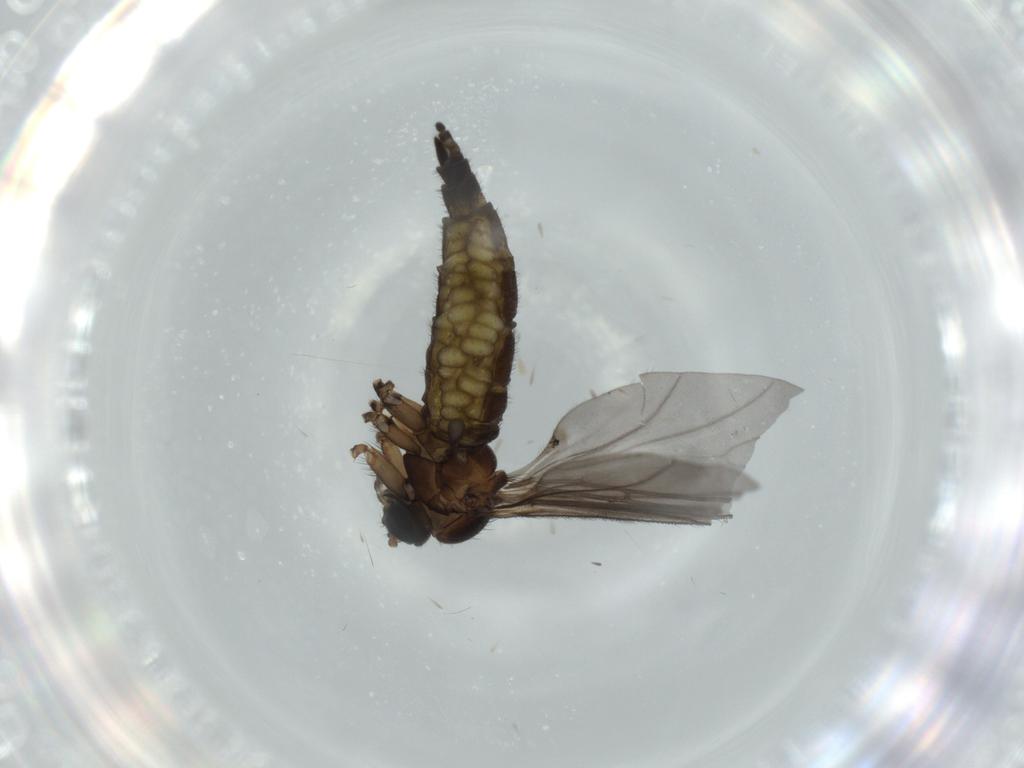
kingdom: Animalia
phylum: Arthropoda
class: Insecta
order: Diptera
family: Sciaridae
